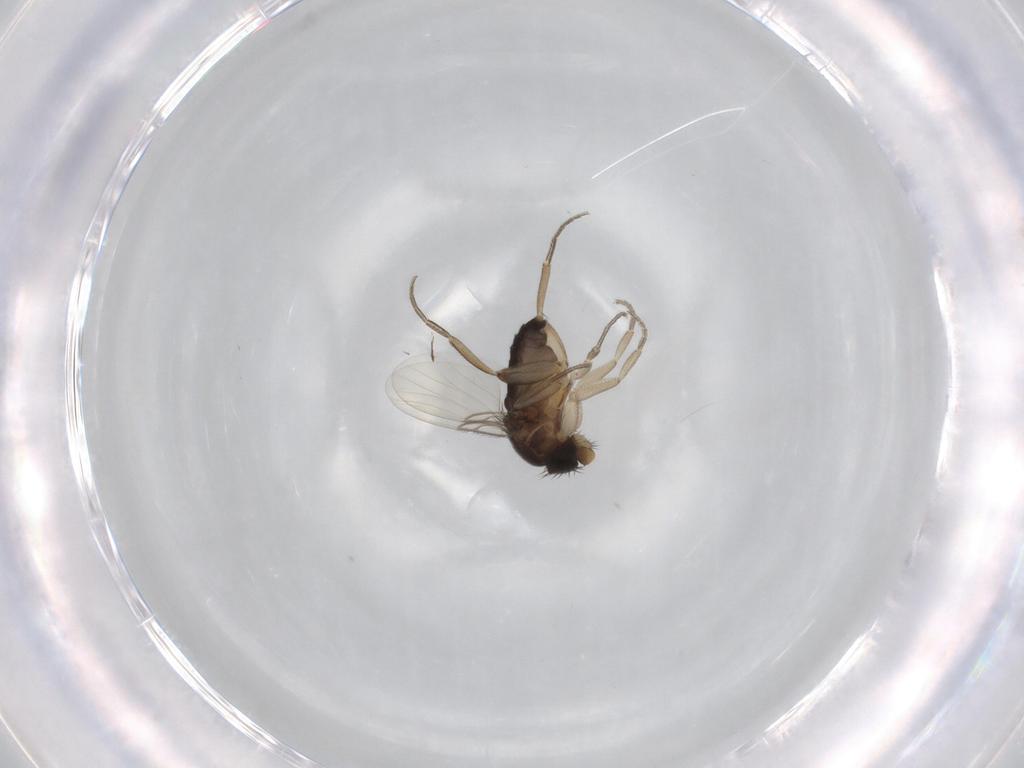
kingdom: Animalia
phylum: Arthropoda
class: Insecta
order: Diptera
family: Phoridae
